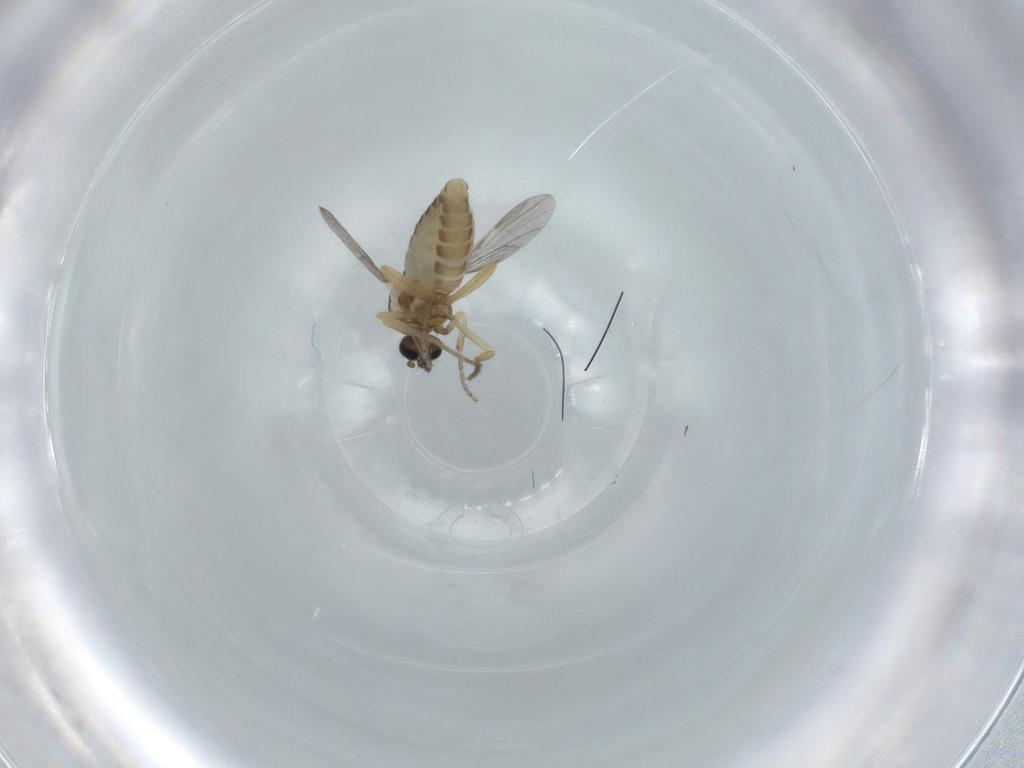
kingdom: Animalia
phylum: Arthropoda
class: Insecta
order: Diptera
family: Ceratopogonidae
